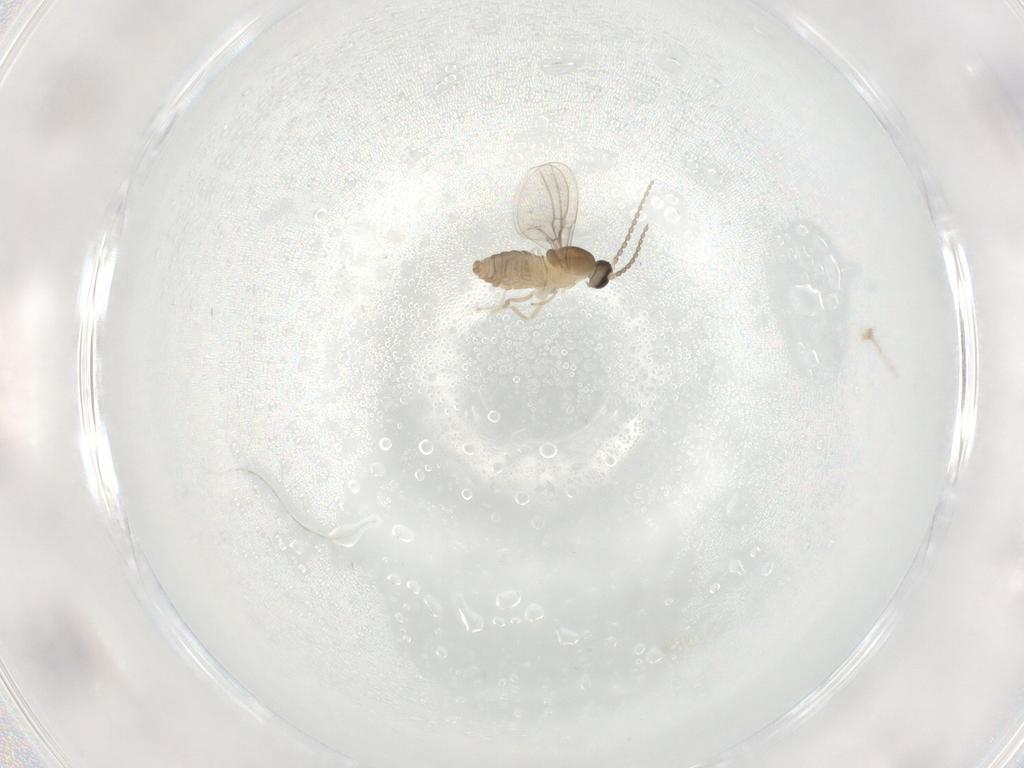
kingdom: Animalia
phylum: Arthropoda
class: Insecta
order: Diptera
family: Cecidomyiidae
